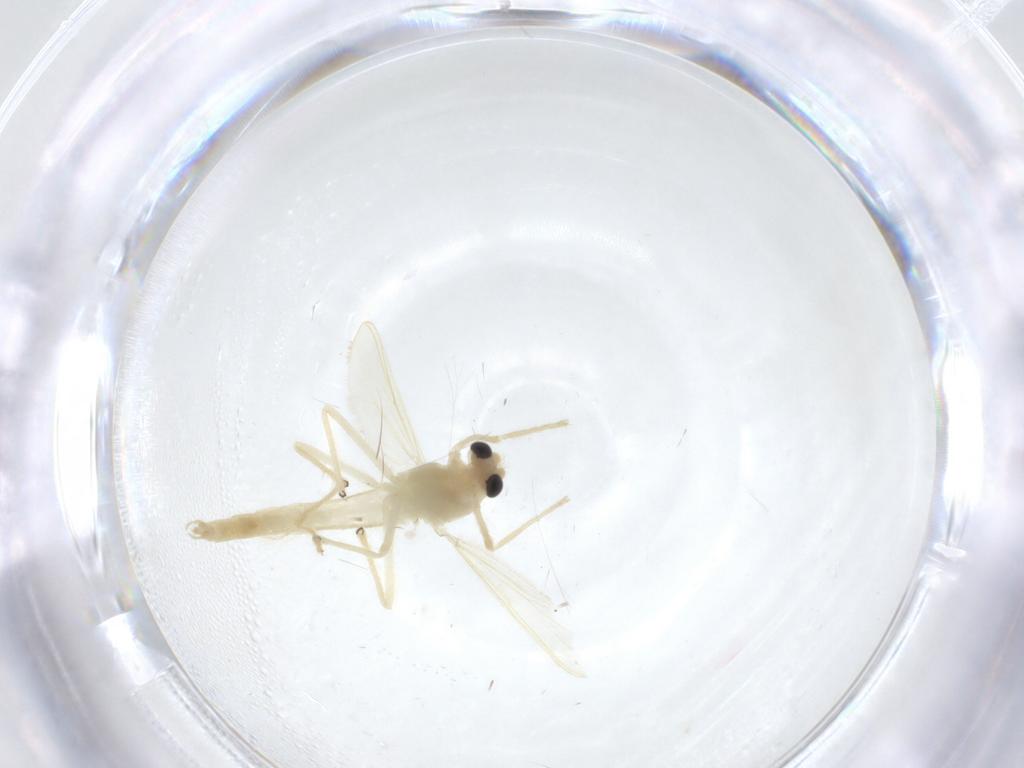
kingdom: Animalia
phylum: Arthropoda
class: Insecta
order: Diptera
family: Chironomidae
